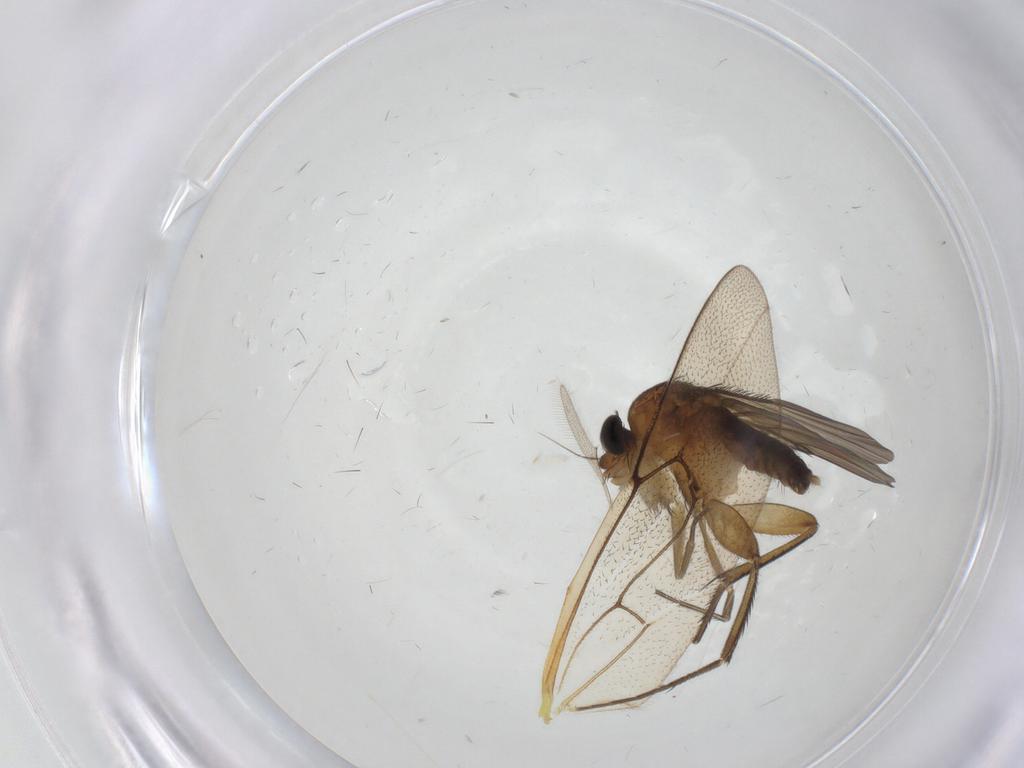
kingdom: Animalia
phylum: Arthropoda
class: Insecta
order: Diptera
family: Phoridae
